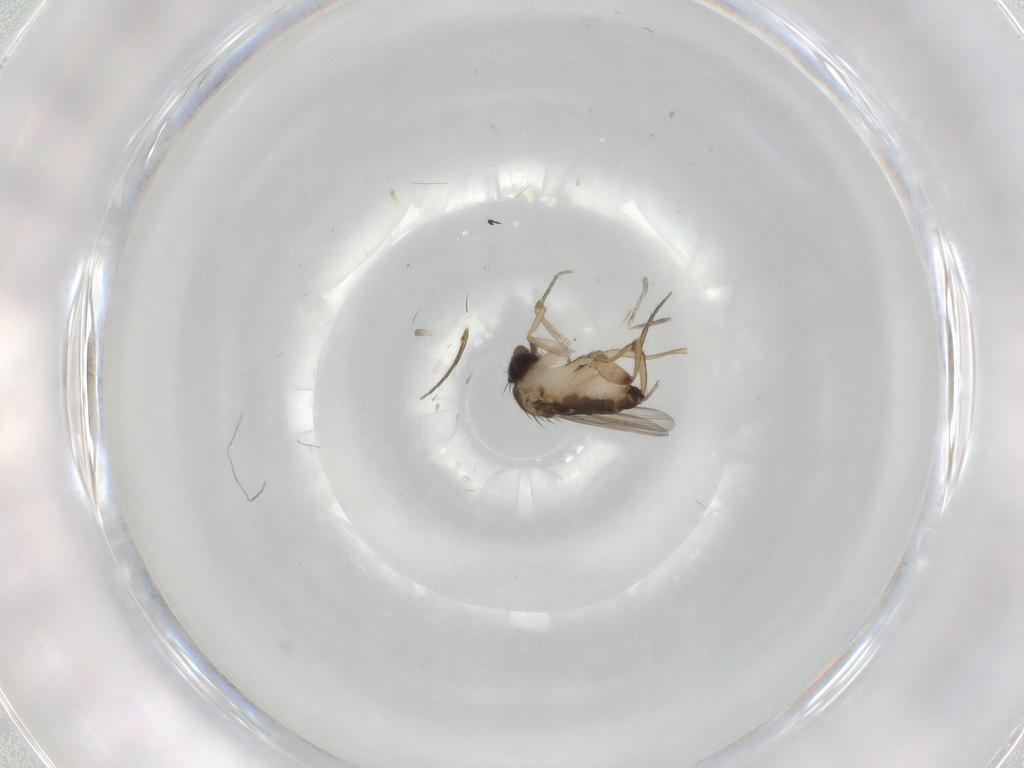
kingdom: Animalia
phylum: Arthropoda
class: Insecta
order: Diptera
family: Phoridae
